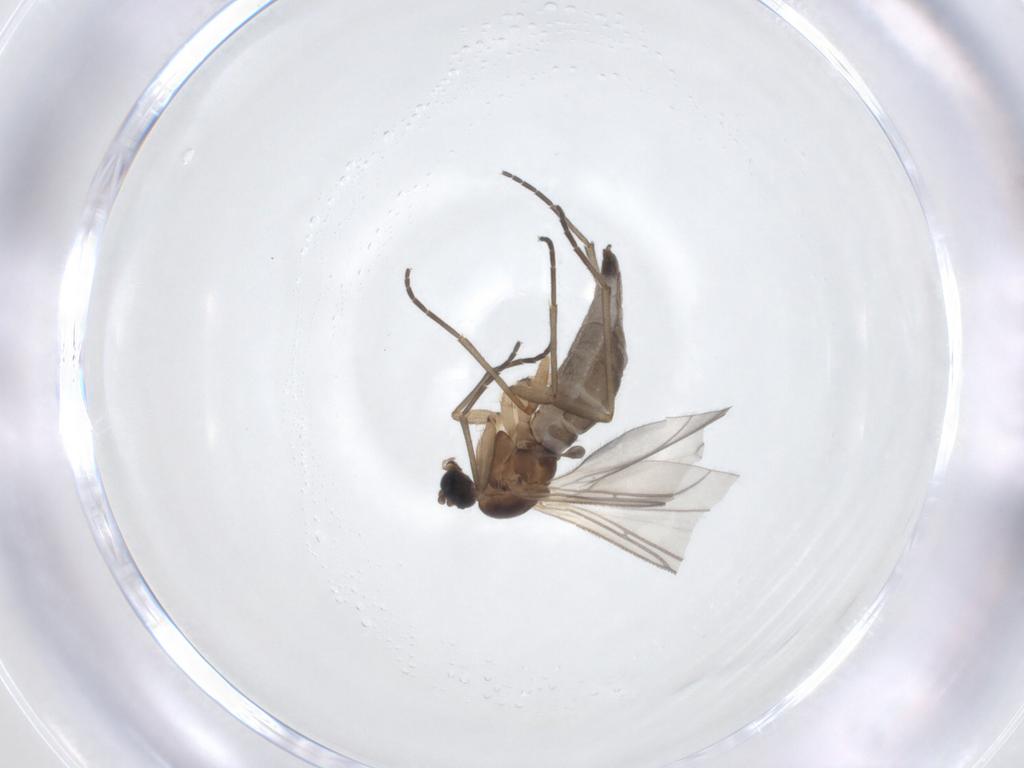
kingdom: Animalia
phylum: Arthropoda
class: Insecta
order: Diptera
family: Sciaridae
